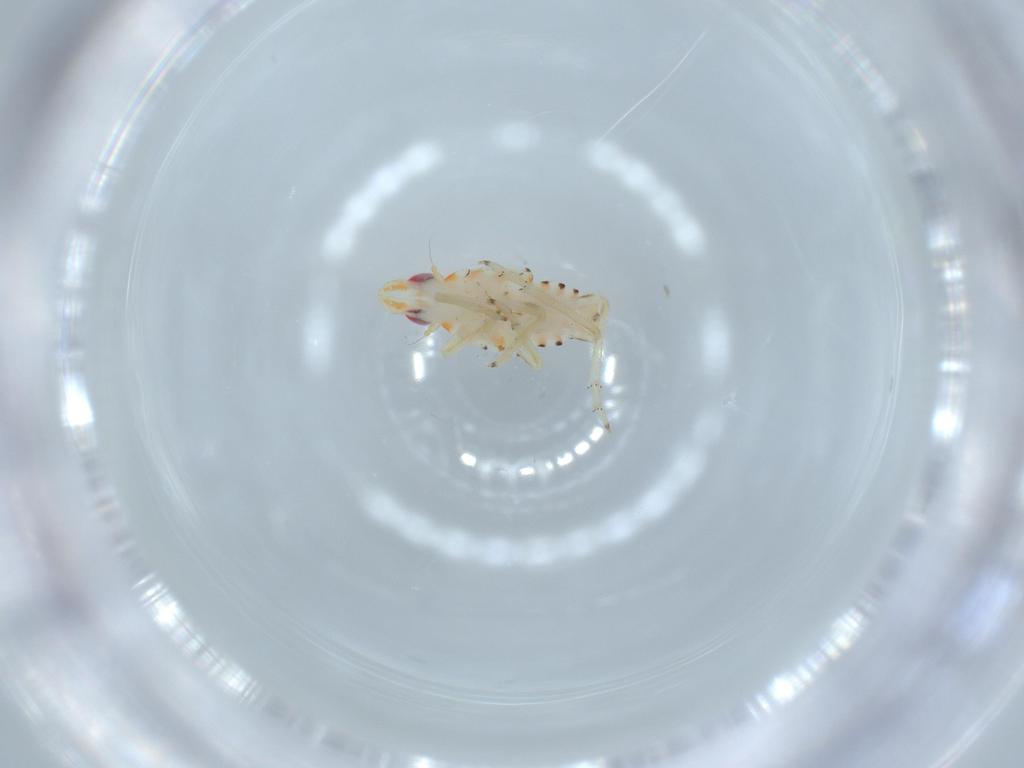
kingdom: Animalia
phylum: Arthropoda
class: Insecta
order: Hemiptera
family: Tropiduchidae
